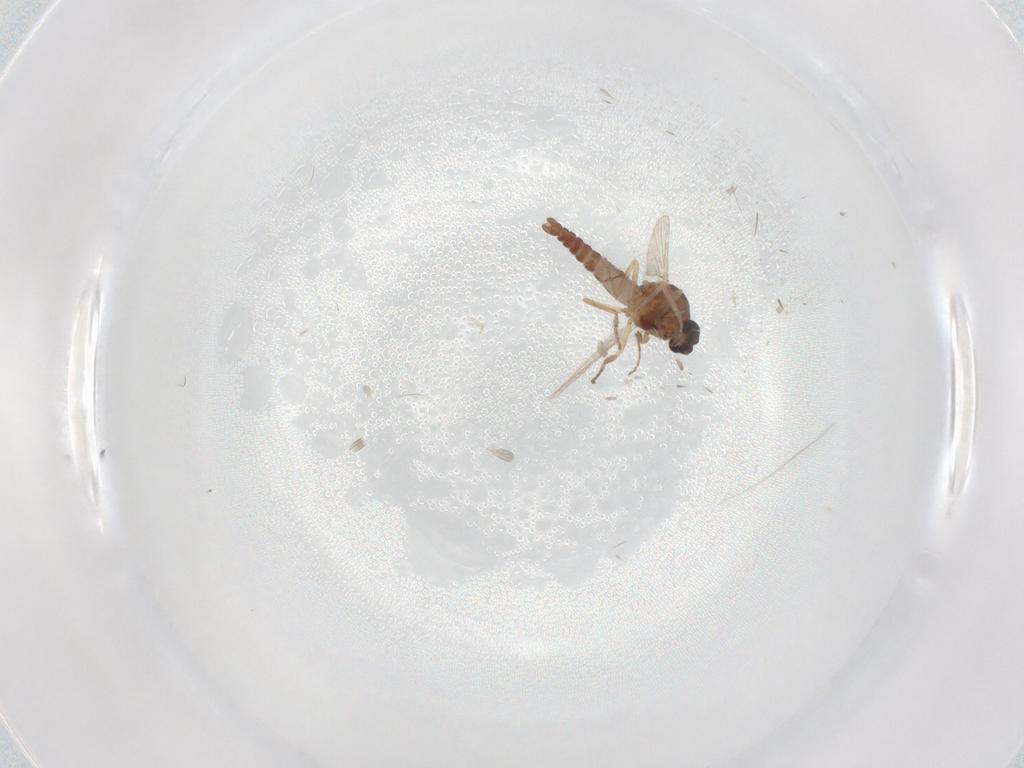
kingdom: Animalia
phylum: Arthropoda
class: Insecta
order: Diptera
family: Ceratopogonidae
